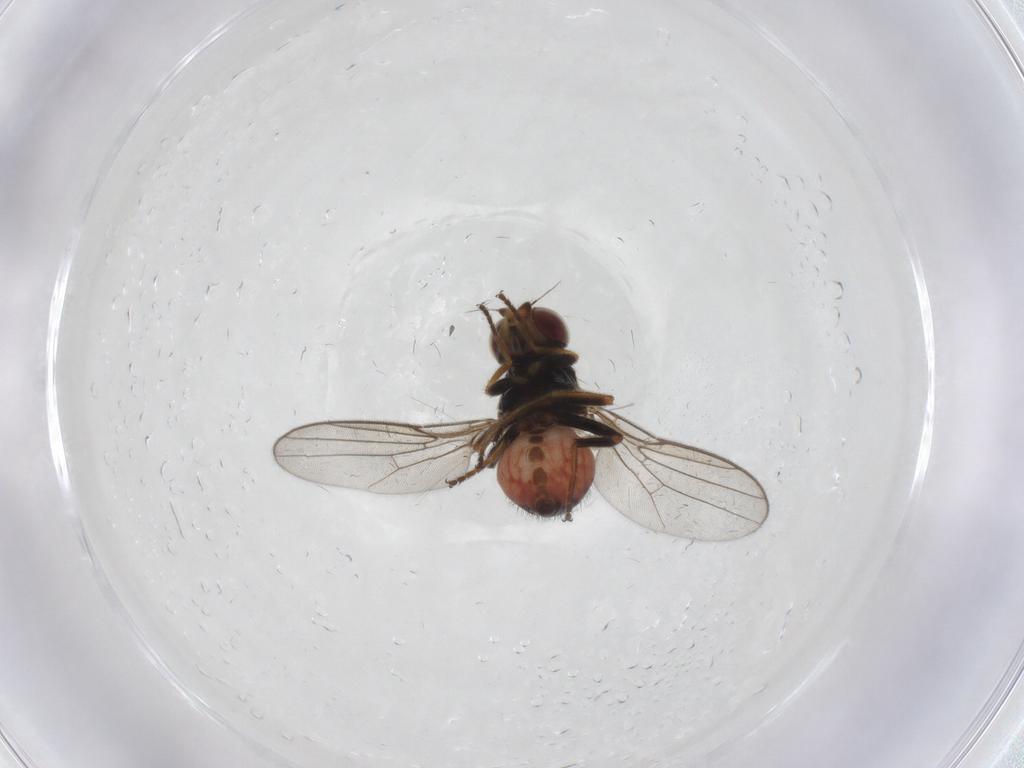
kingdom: Animalia
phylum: Arthropoda
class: Insecta
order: Diptera
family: Chloropidae
